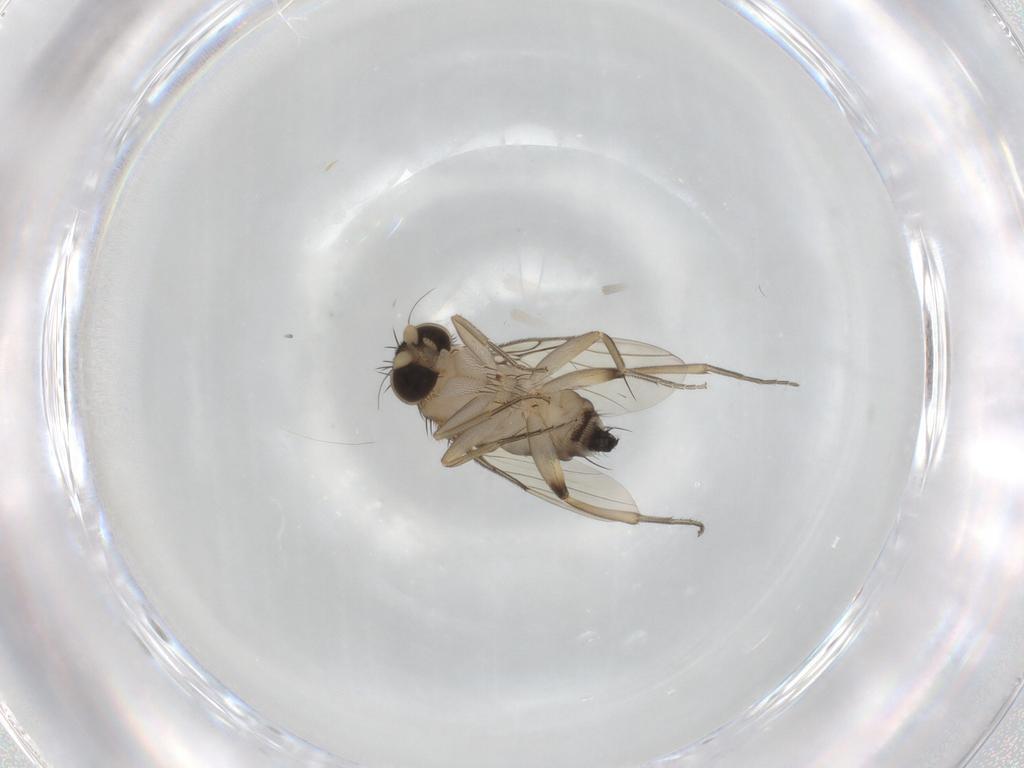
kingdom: Animalia
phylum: Arthropoda
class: Insecta
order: Diptera
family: Phoridae
